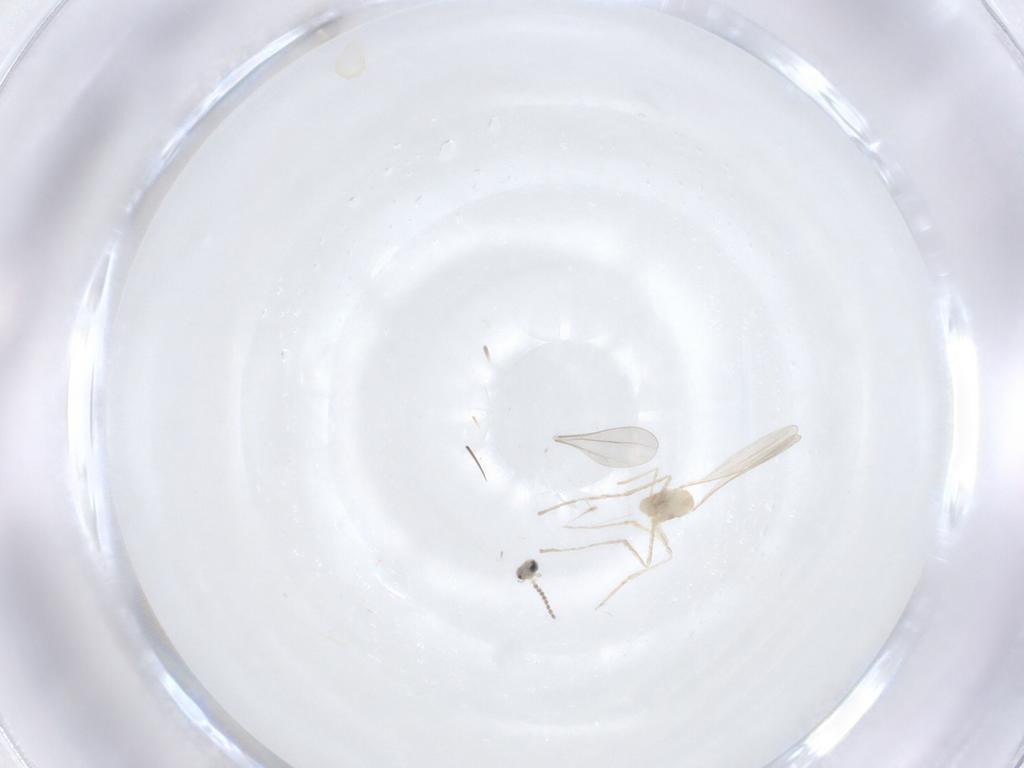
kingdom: Animalia
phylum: Arthropoda
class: Insecta
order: Diptera
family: Cecidomyiidae
